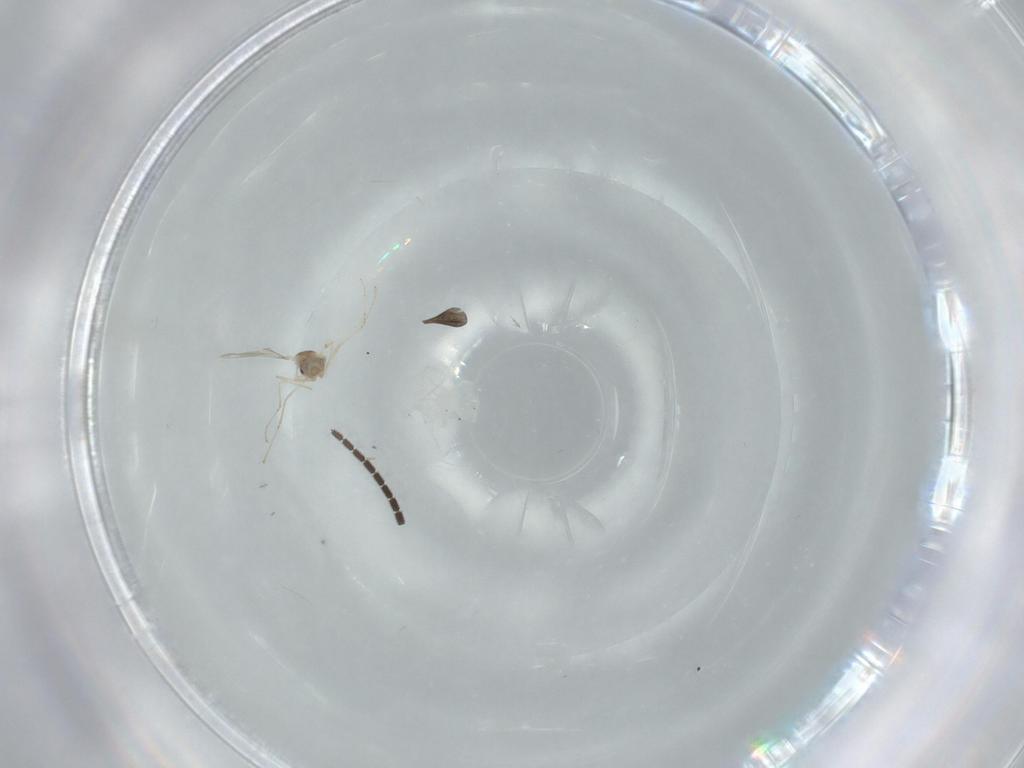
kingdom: Animalia
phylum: Arthropoda
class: Insecta
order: Diptera
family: Cecidomyiidae
